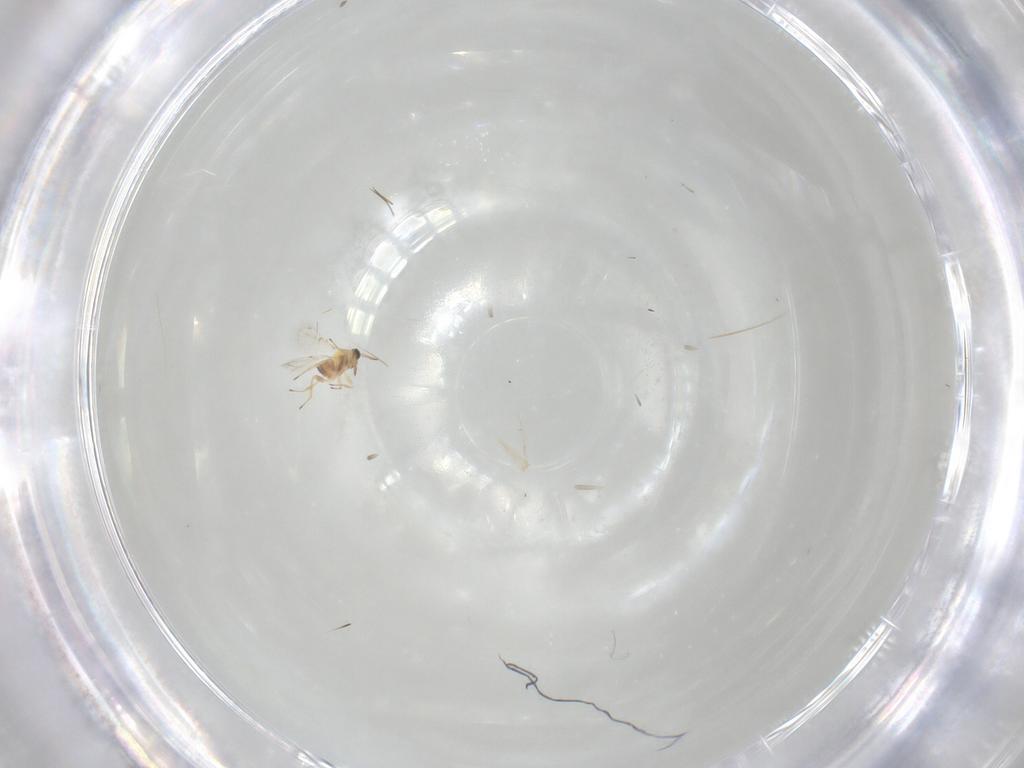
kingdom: Animalia
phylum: Arthropoda
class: Insecta
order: Hymenoptera
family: Trichogrammatidae
